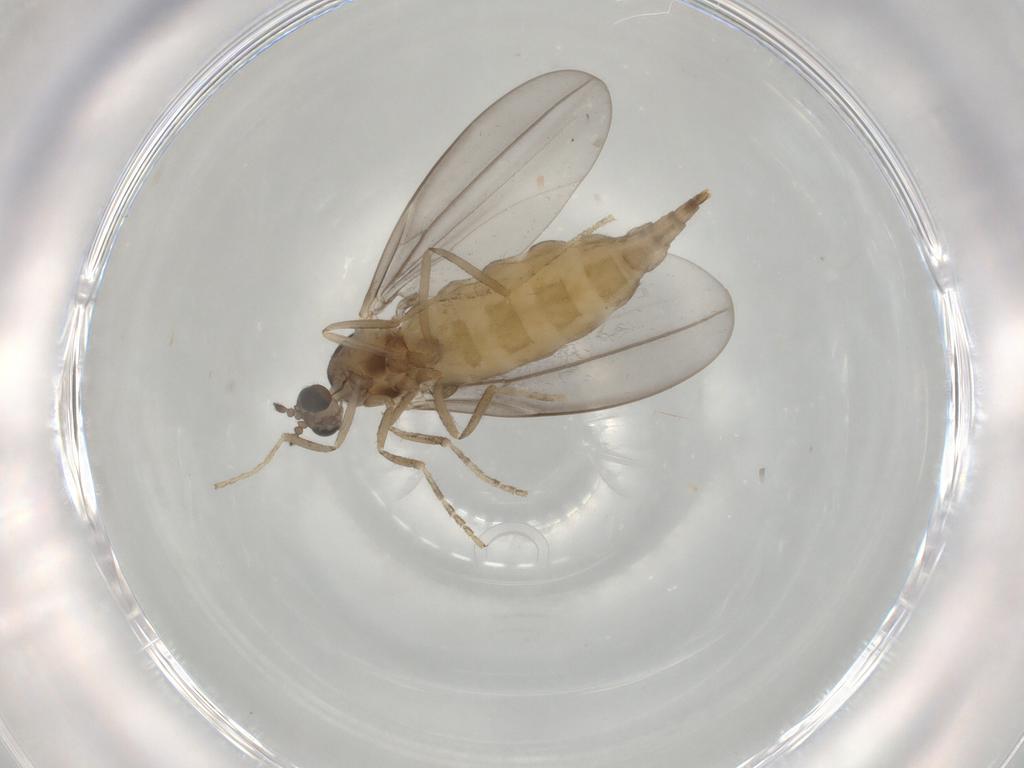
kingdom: Animalia
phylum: Arthropoda
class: Insecta
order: Diptera
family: Cecidomyiidae
